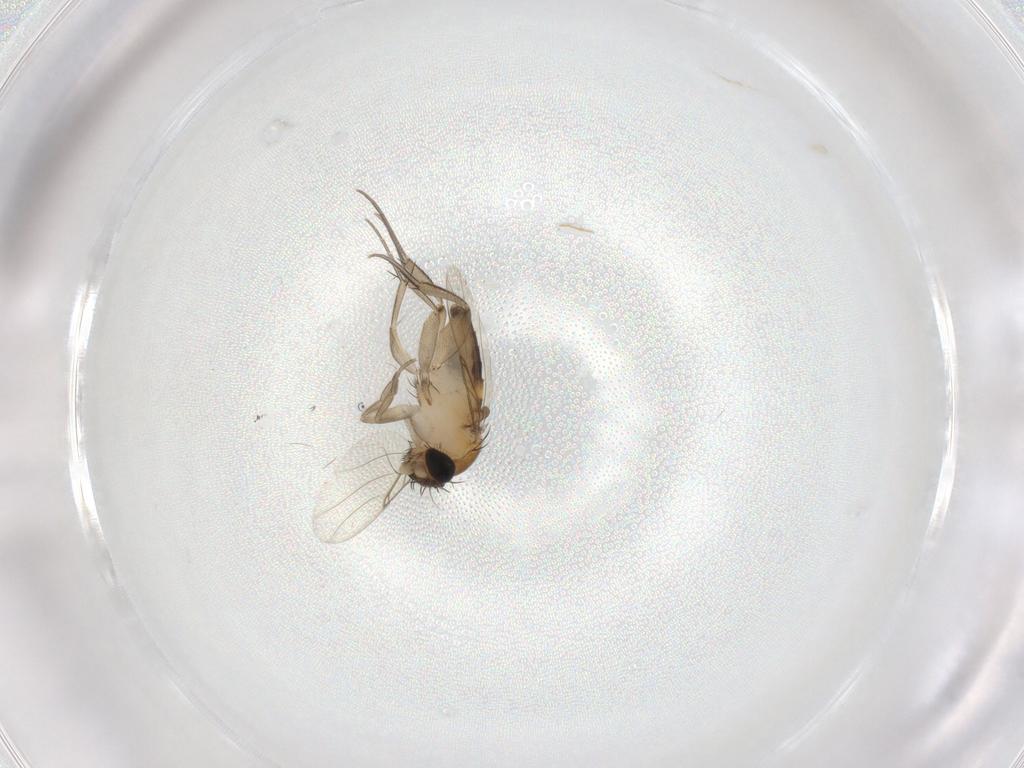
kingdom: Animalia
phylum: Arthropoda
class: Insecta
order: Diptera
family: Phoridae
